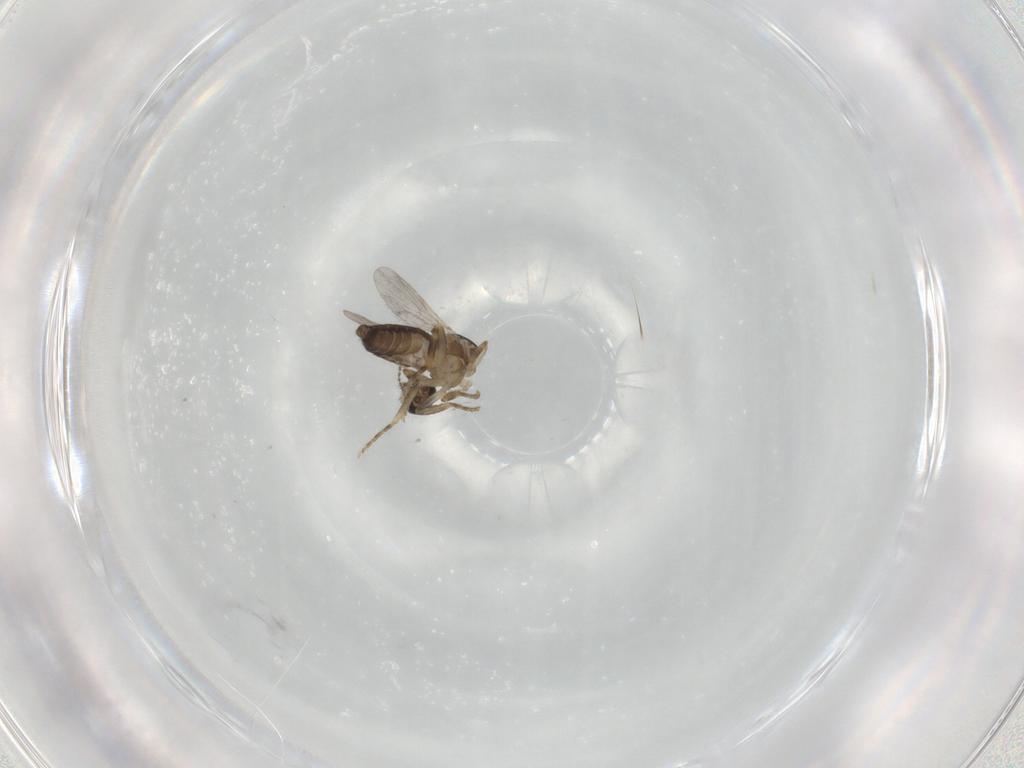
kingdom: Animalia
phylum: Arthropoda
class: Insecta
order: Diptera
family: Ceratopogonidae
